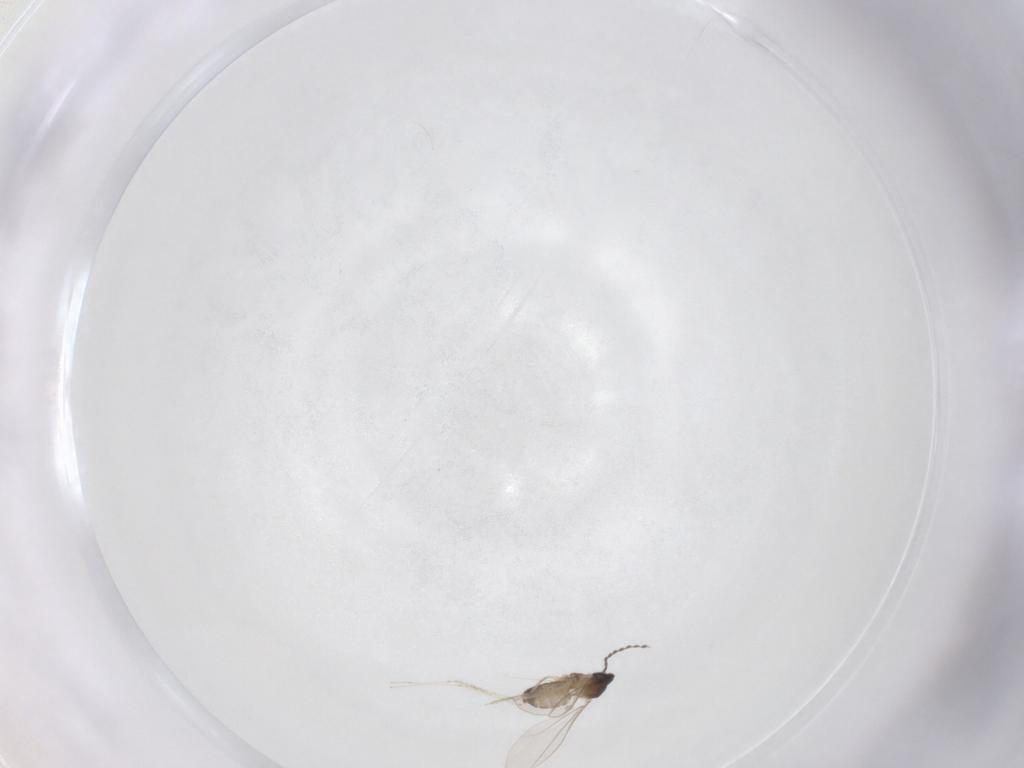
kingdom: Animalia
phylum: Arthropoda
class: Insecta
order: Diptera
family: Cecidomyiidae
